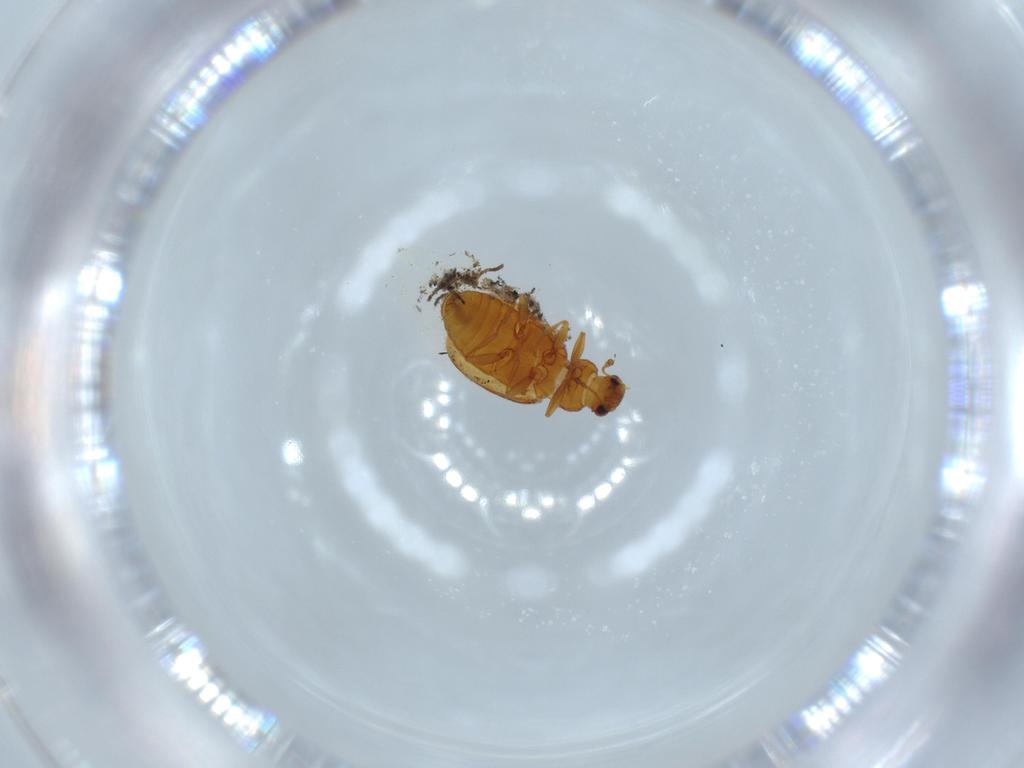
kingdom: Animalia
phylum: Arthropoda
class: Insecta
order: Coleoptera
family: Latridiidae
